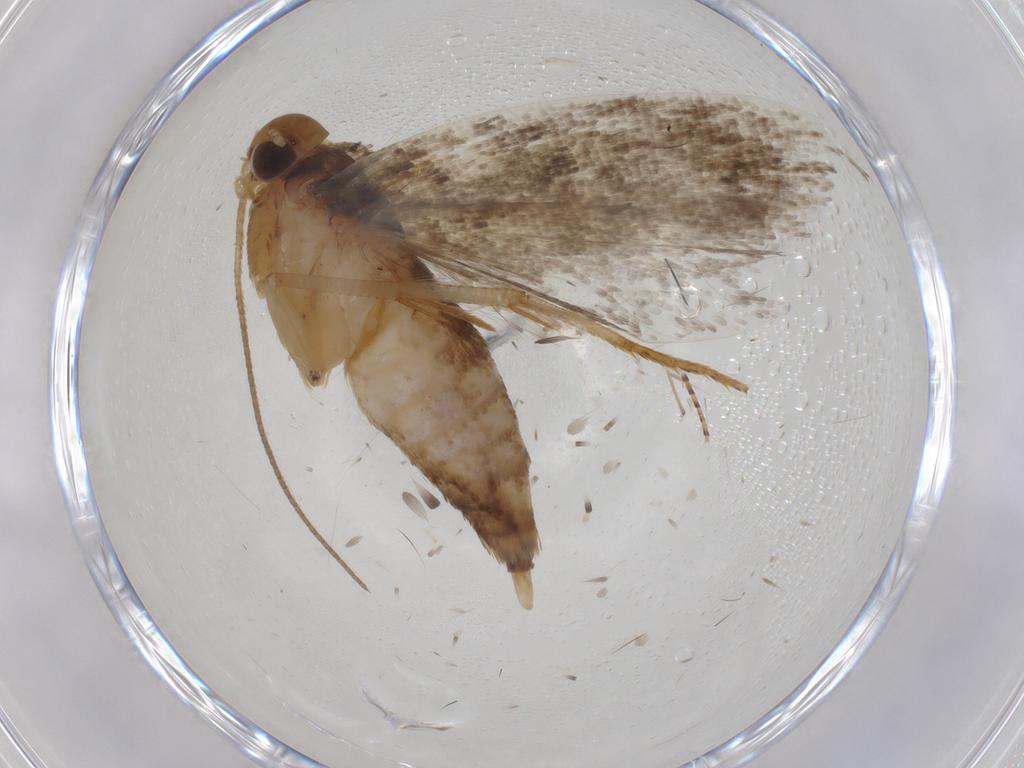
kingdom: Animalia
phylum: Arthropoda
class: Insecta
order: Lepidoptera
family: Gelechiidae
